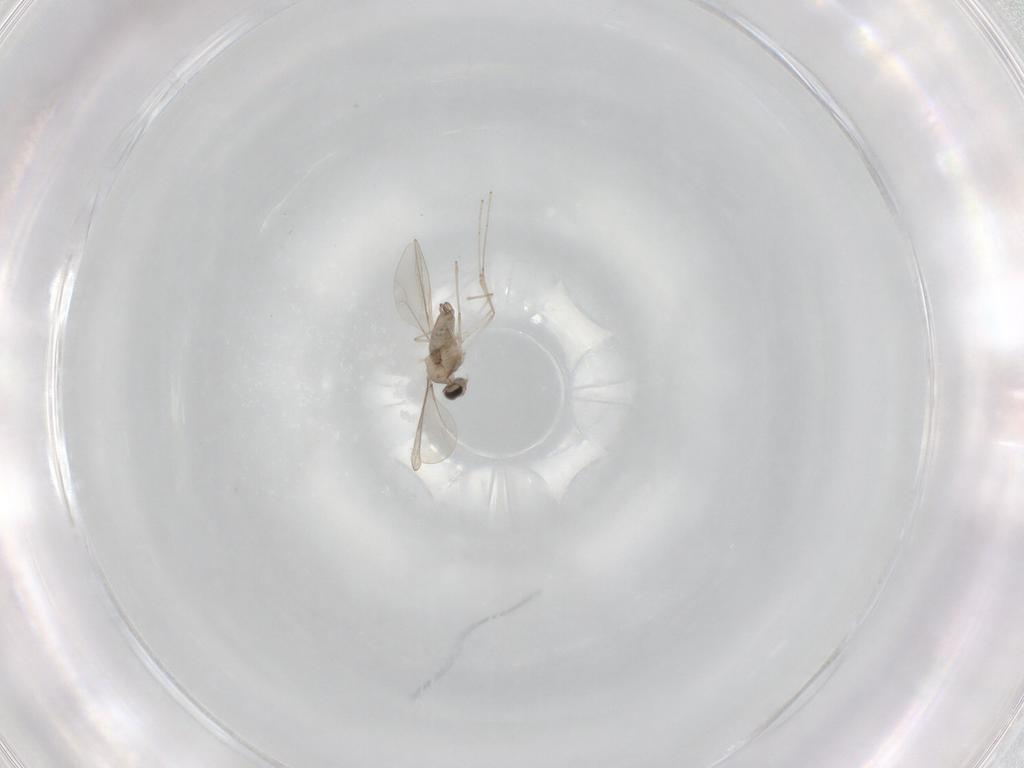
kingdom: Animalia
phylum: Arthropoda
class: Insecta
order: Diptera
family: Cecidomyiidae
